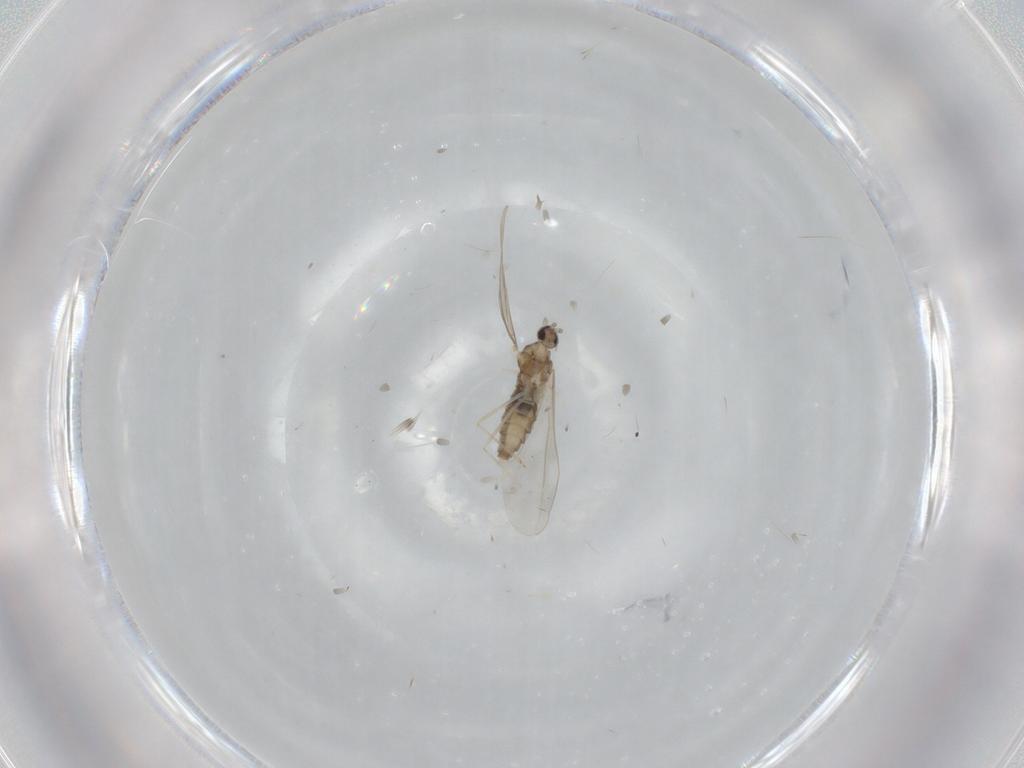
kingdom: Animalia
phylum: Arthropoda
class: Insecta
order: Diptera
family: Cecidomyiidae
